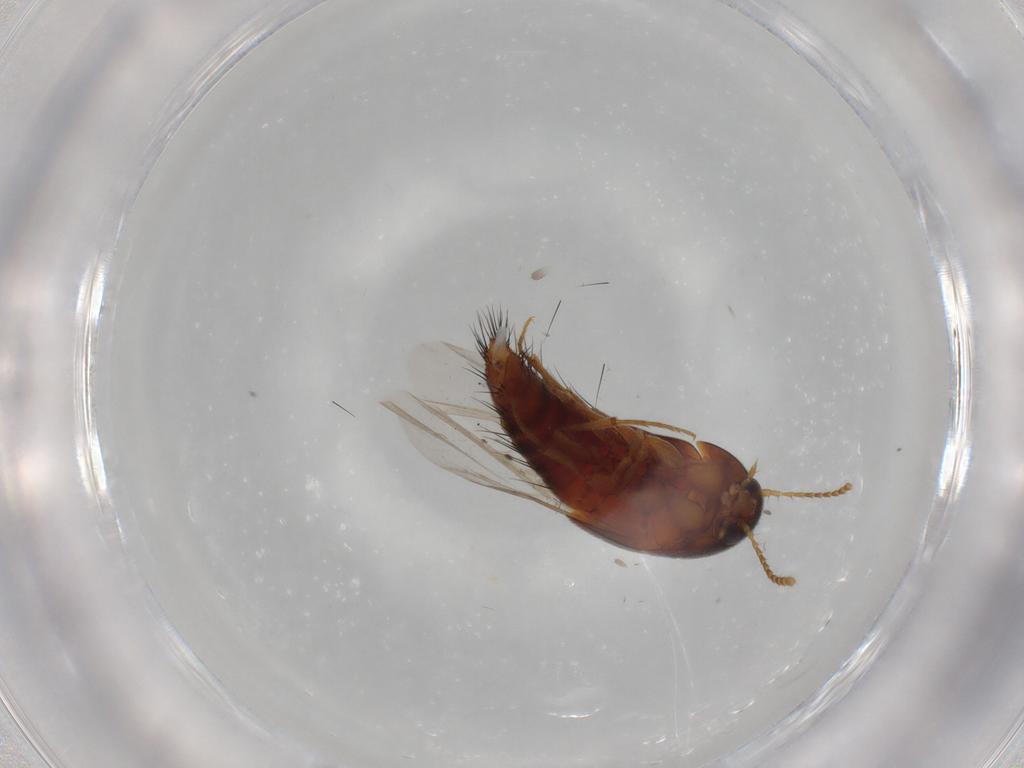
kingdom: Animalia
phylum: Arthropoda
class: Insecta
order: Coleoptera
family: Staphylinidae
